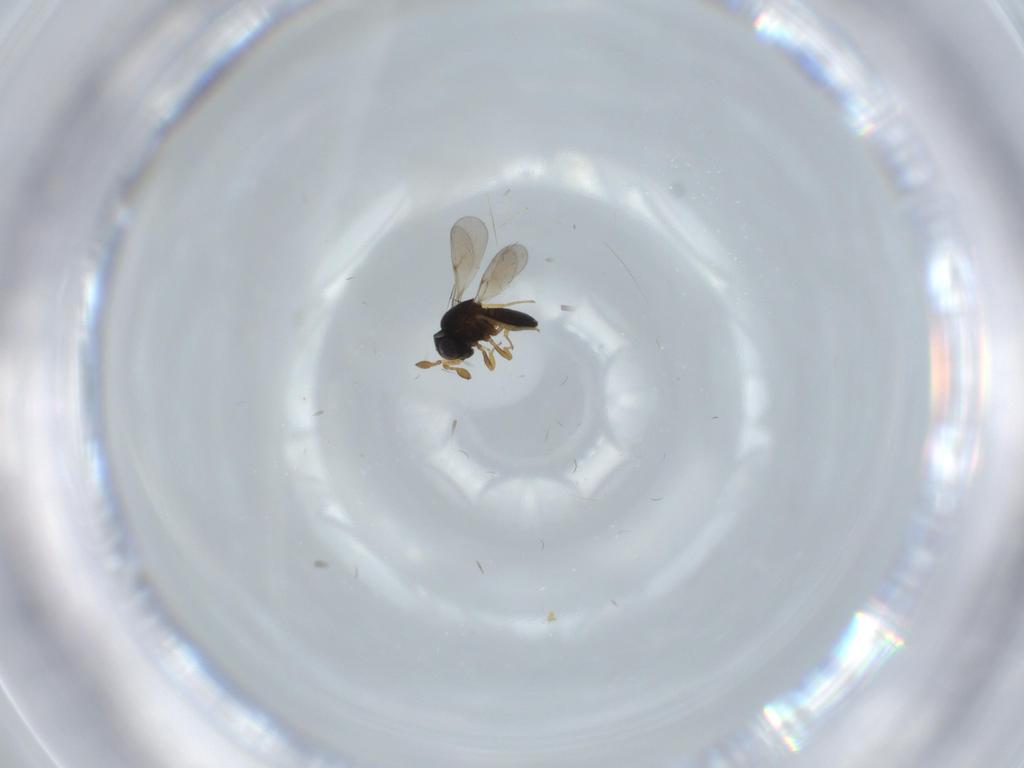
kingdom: Animalia
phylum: Arthropoda
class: Insecta
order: Hymenoptera
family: Scelionidae
